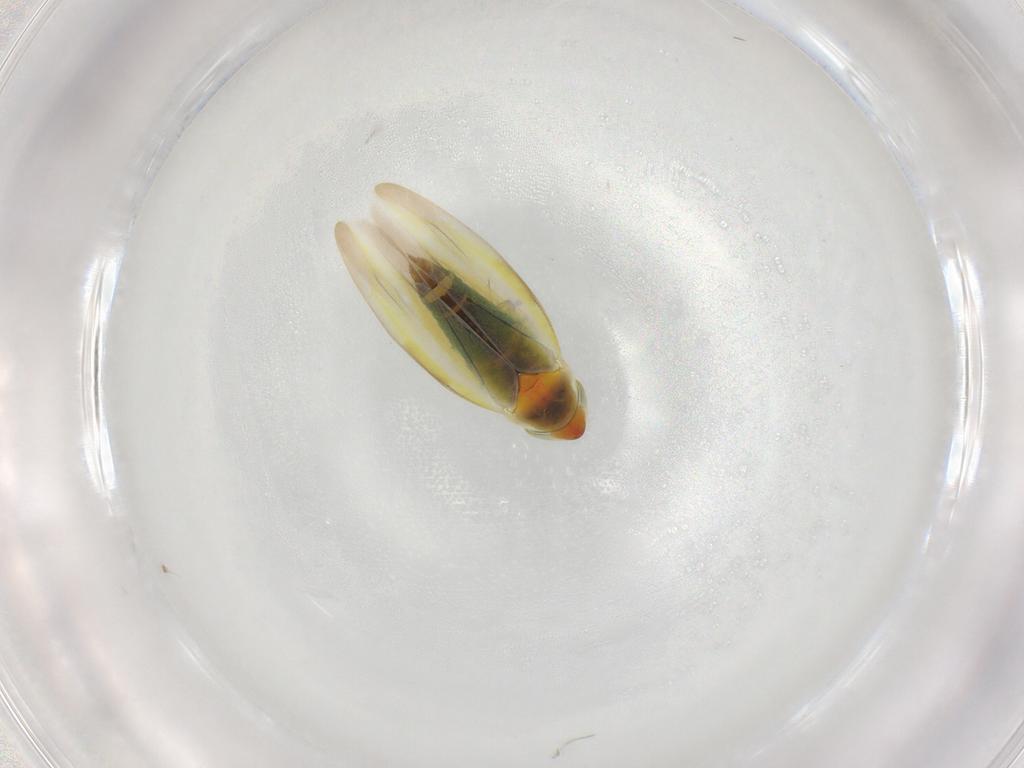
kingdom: Animalia
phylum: Arthropoda
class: Insecta
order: Hemiptera
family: Cicadellidae
